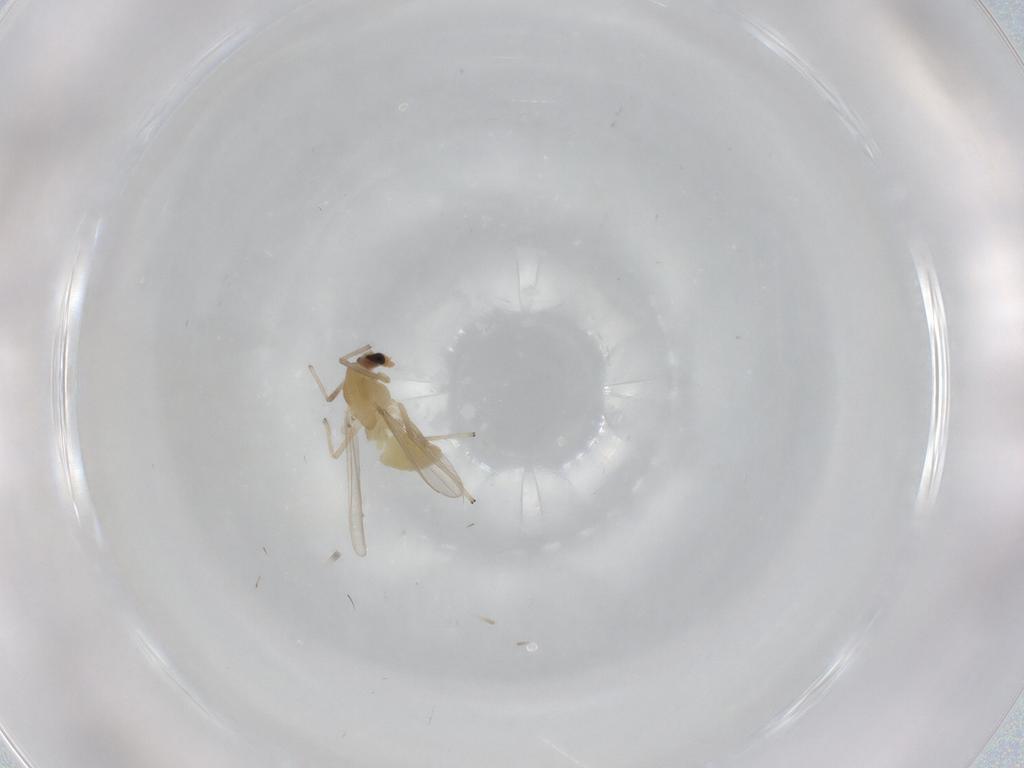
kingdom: Animalia
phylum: Arthropoda
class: Insecta
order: Diptera
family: Chironomidae
